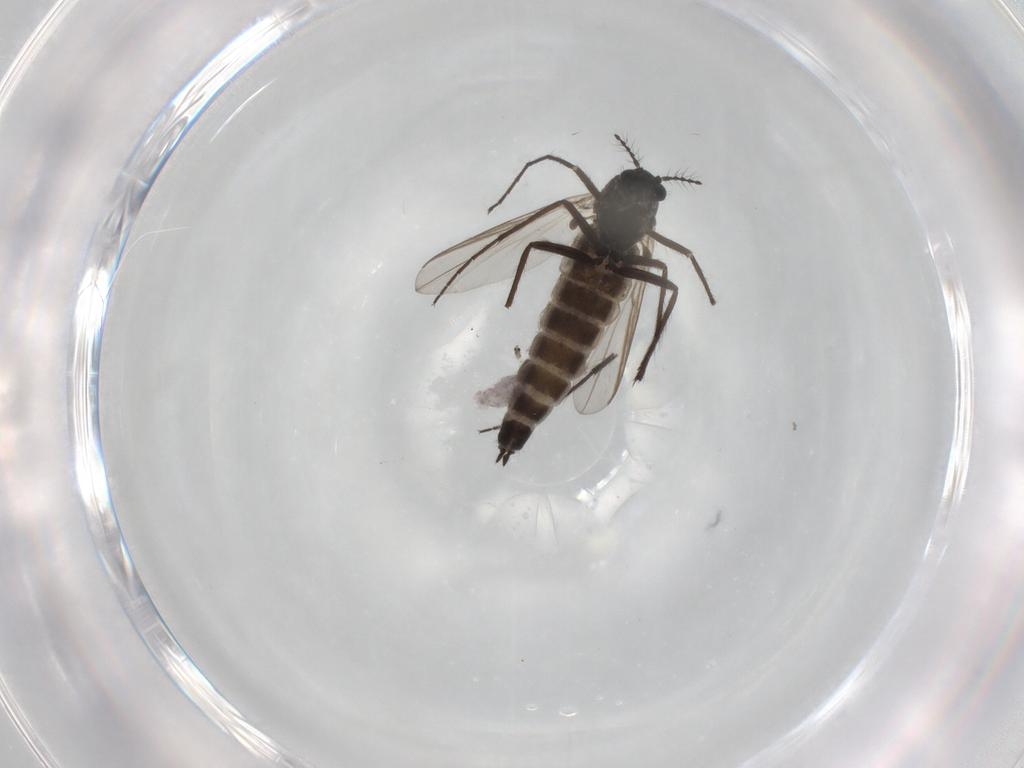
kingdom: Animalia
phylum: Arthropoda
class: Insecta
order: Diptera
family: Chironomidae
